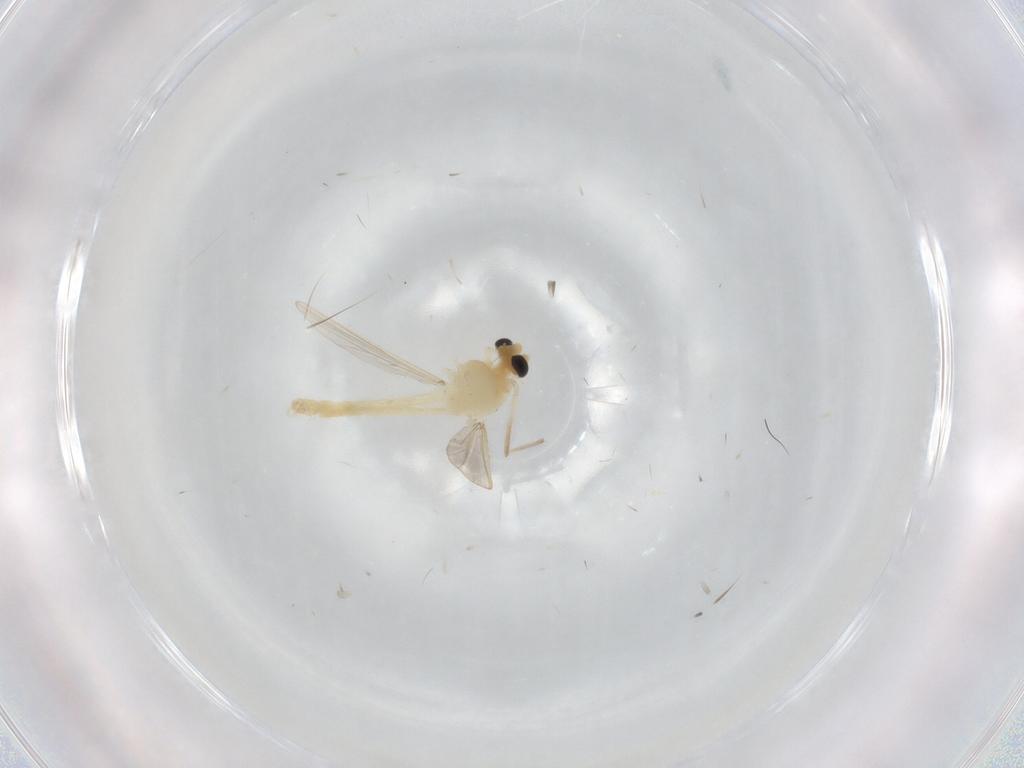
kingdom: Animalia
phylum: Arthropoda
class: Insecta
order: Diptera
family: Chironomidae
